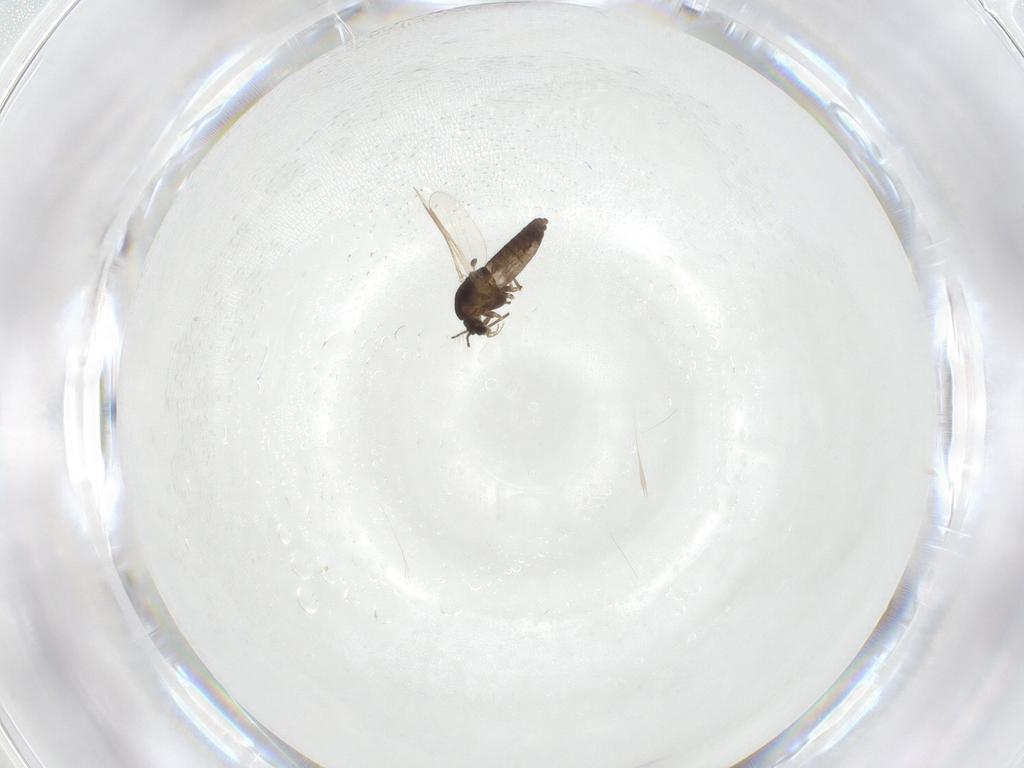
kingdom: Animalia
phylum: Arthropoda
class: Insecta
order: Diptera
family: Chironomidae
